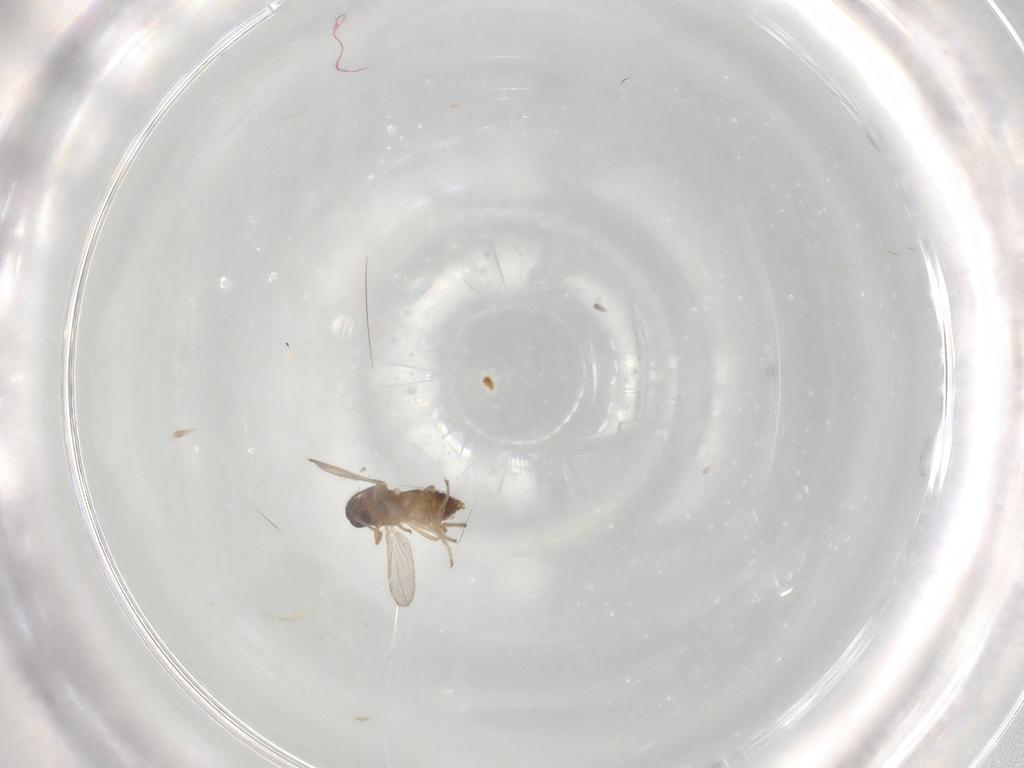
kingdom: Animalia
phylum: Arthropoda
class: Insecta
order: Diptera
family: Ceratopogonidae
